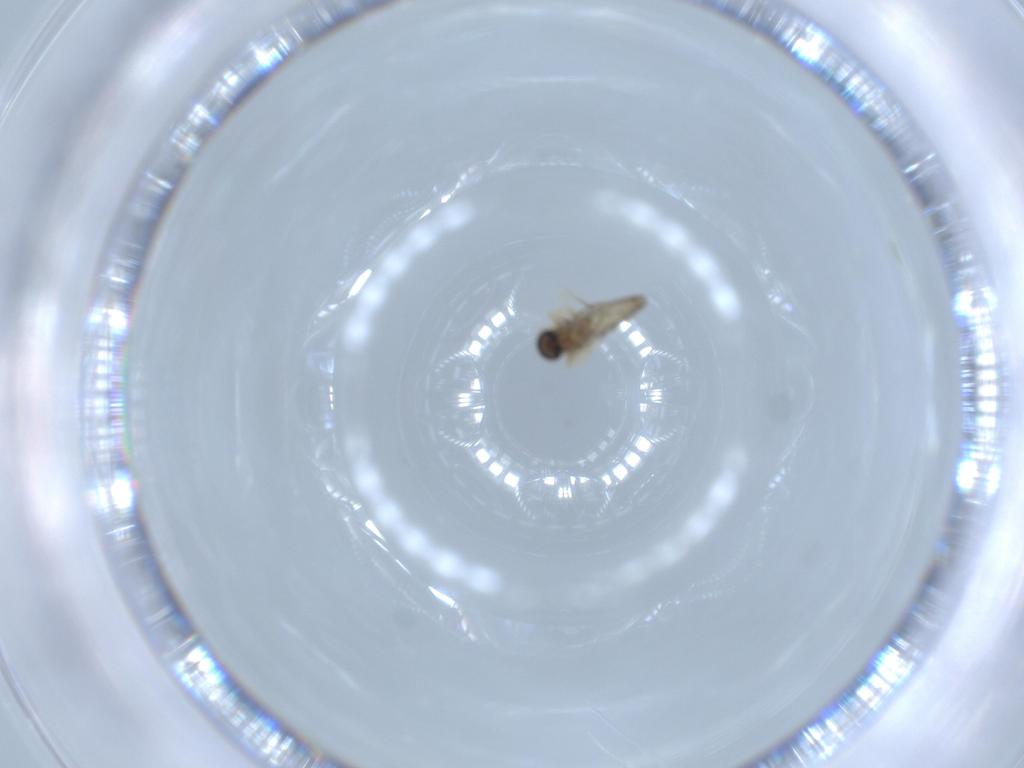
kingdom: Animalia
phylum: Arthropoda
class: Insecta
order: Diptera
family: Ceratopogonidae
